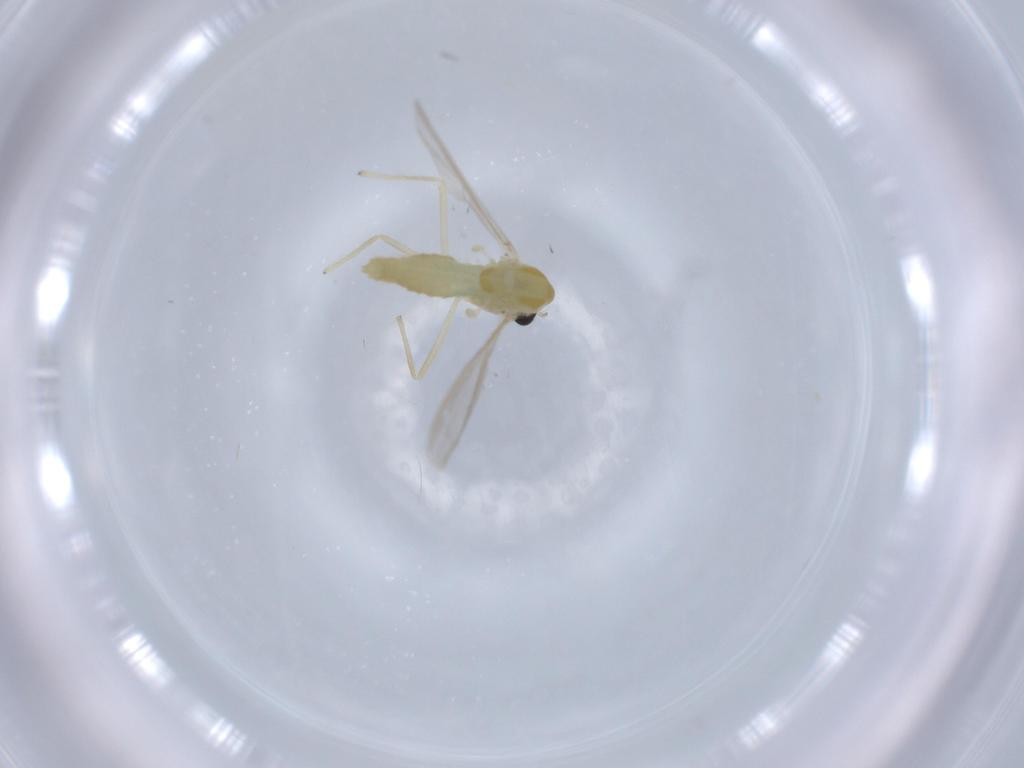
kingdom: Animalia
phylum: Arthropoda
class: Insecta
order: Diptera
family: Chironomidae
